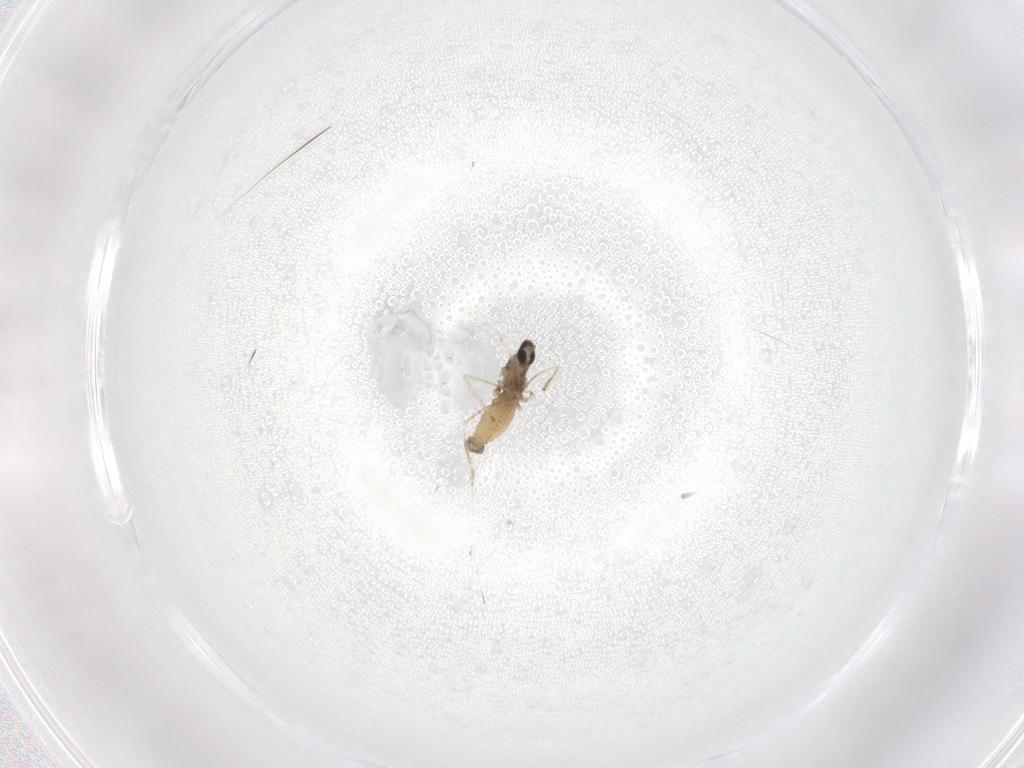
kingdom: Animalia
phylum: Arthropoda
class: Insecta
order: Diptera
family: Cecidomyiidae
